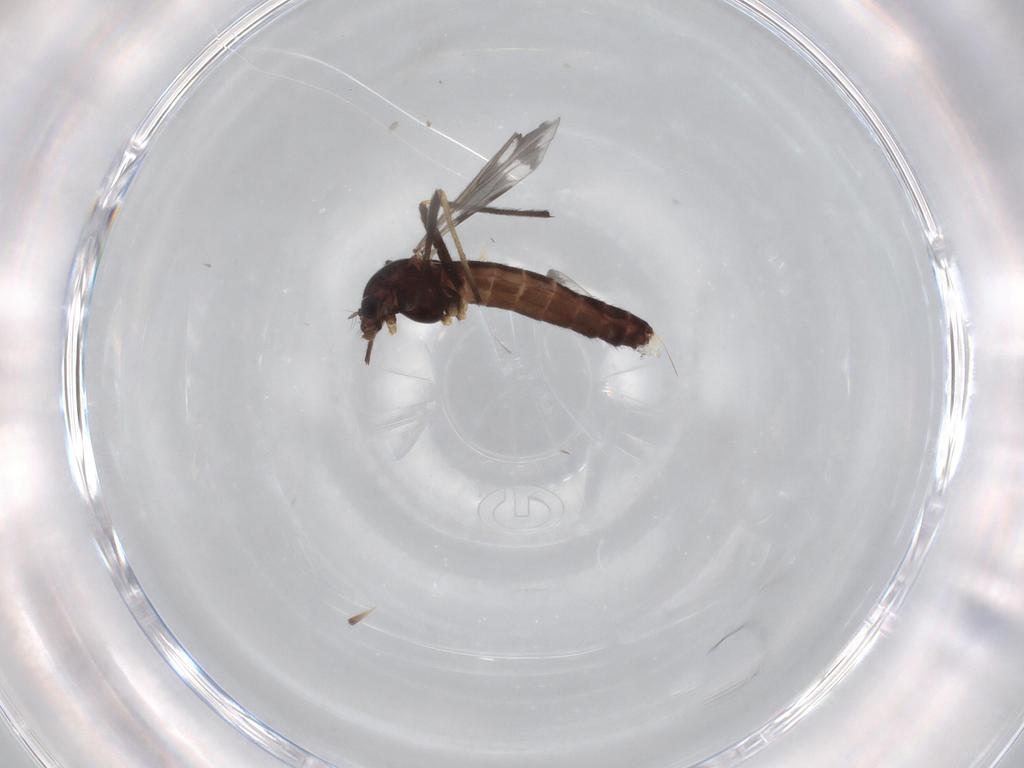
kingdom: Animalia
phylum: Arthropoda
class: Insecta
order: Diptera
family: Chironomidae
